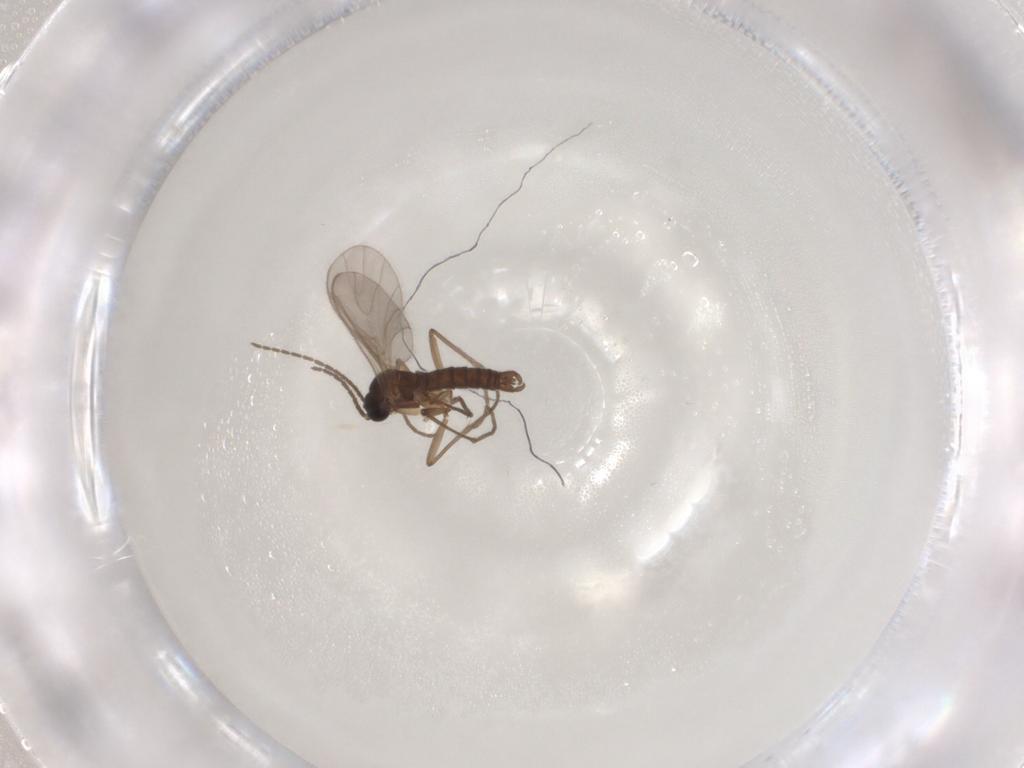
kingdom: Animalia
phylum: Arthropoda
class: Insecta
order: Diptera
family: Sciaridae
